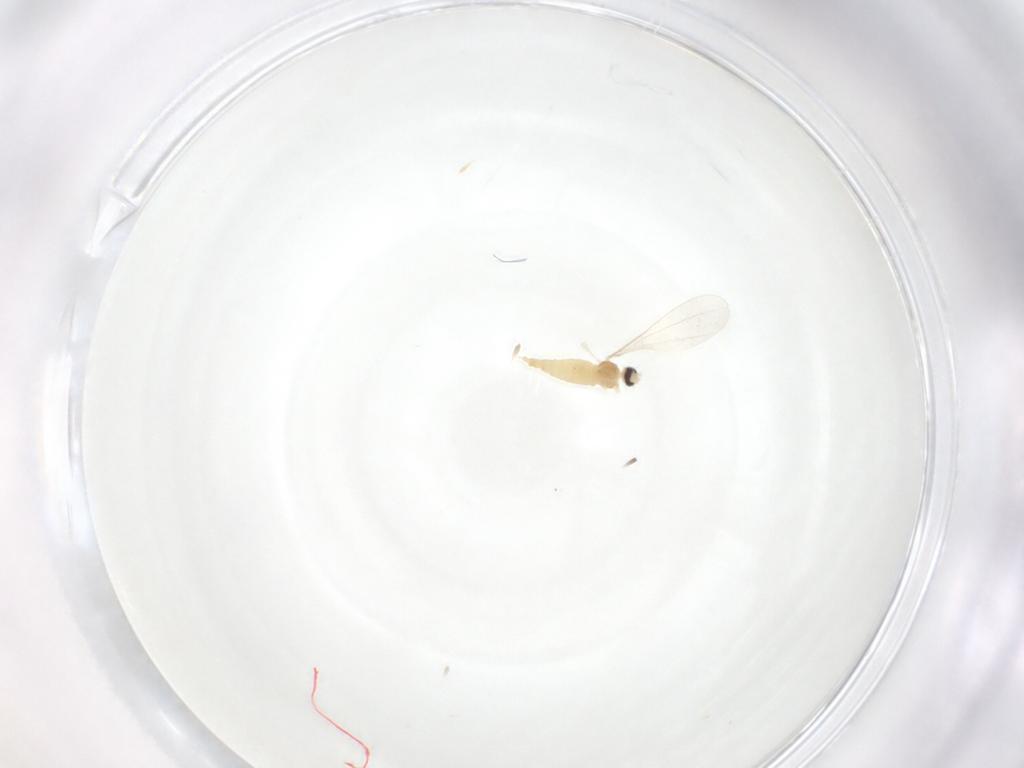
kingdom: Animalia
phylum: Arthropoda
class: Insecta
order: Diptera
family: Cecidomyiidae
